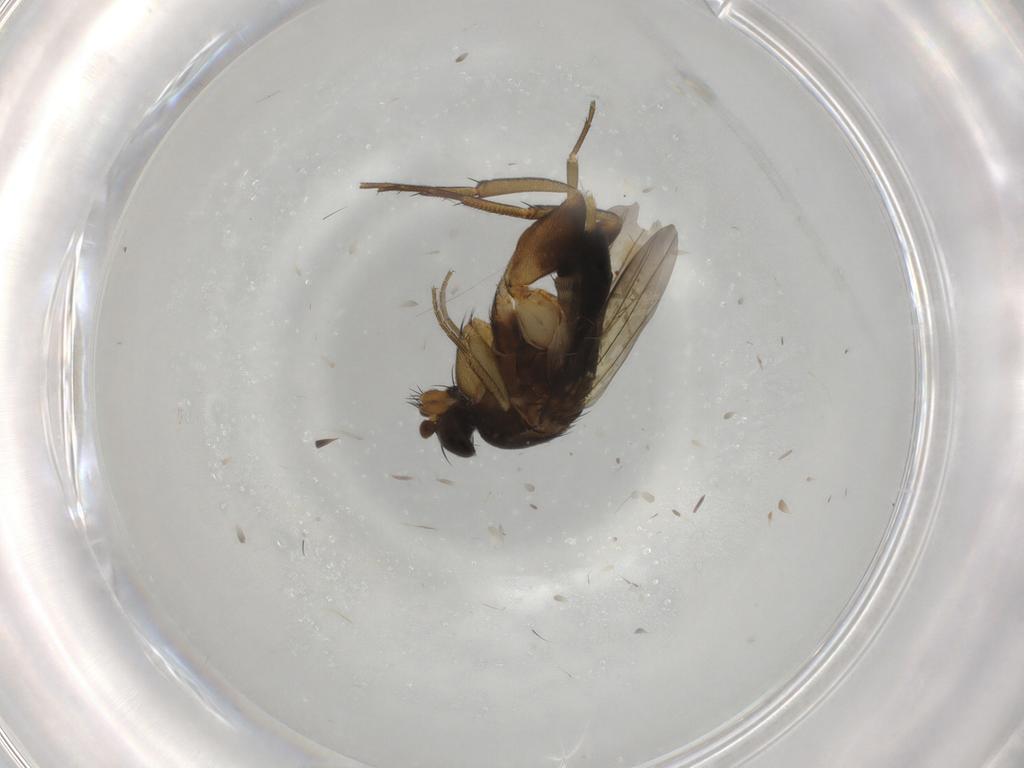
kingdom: Animalia
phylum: Arthropoda
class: Insecta
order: Diptera
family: Phoridae
